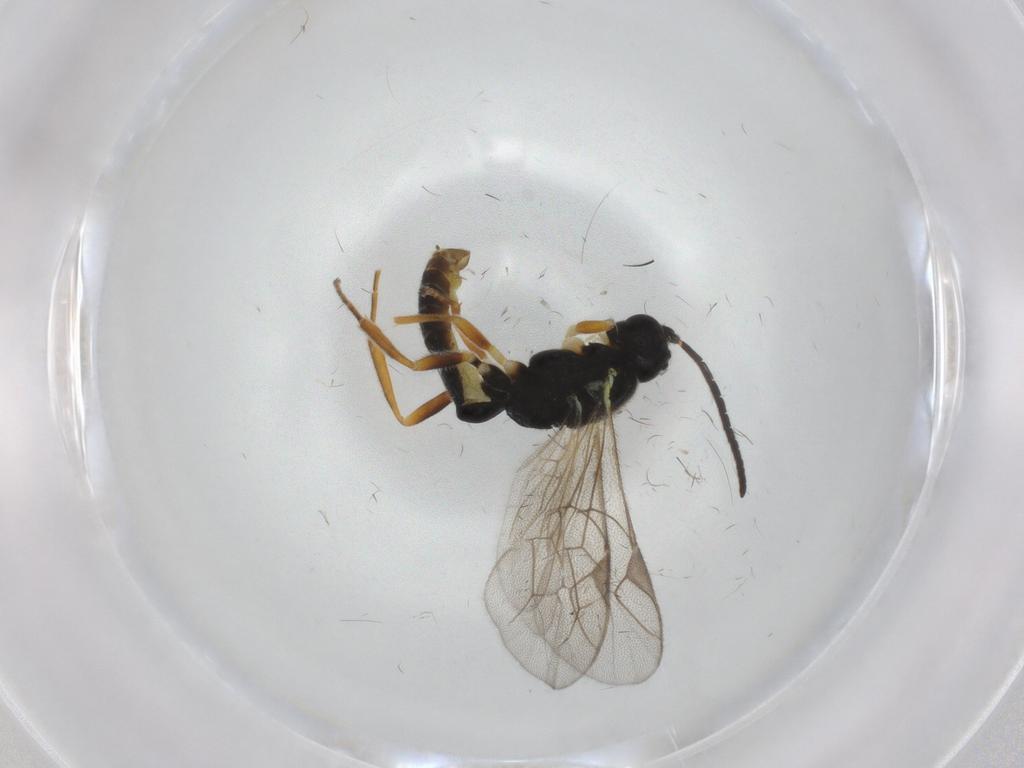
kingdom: Animalia
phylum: Arthropoda
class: Insecta
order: Hymenoptera
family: Ichneumonidae
